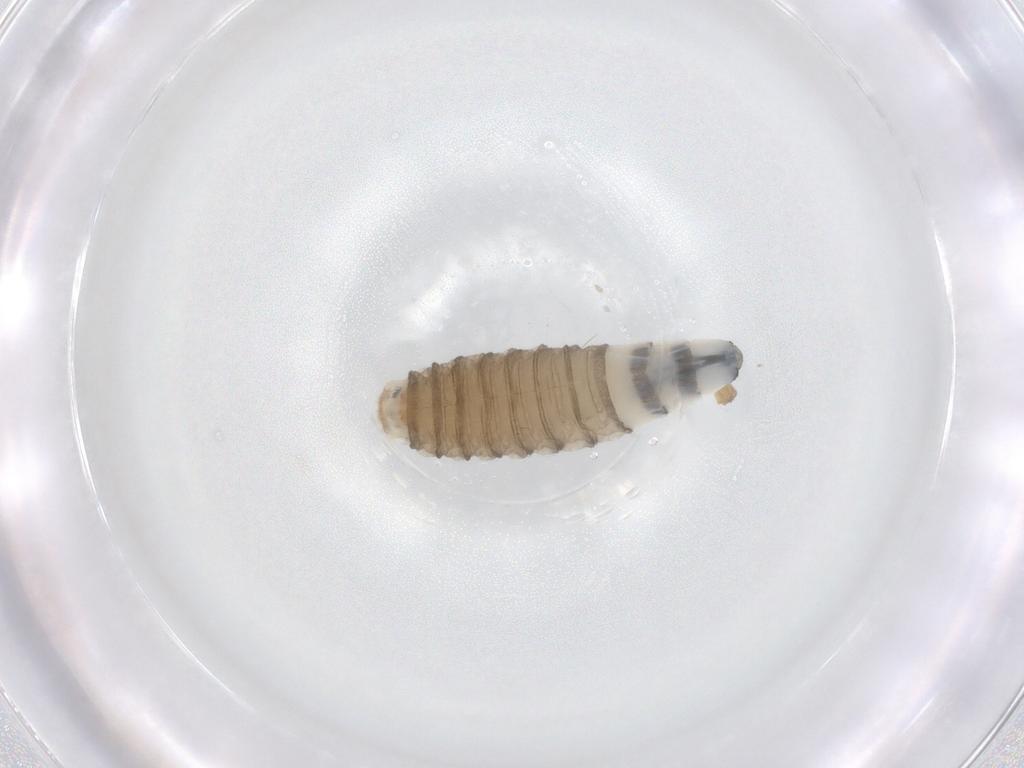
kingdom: Animalia
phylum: Arthropoda
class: Insecta
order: Diptera
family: Sarcophagidae
